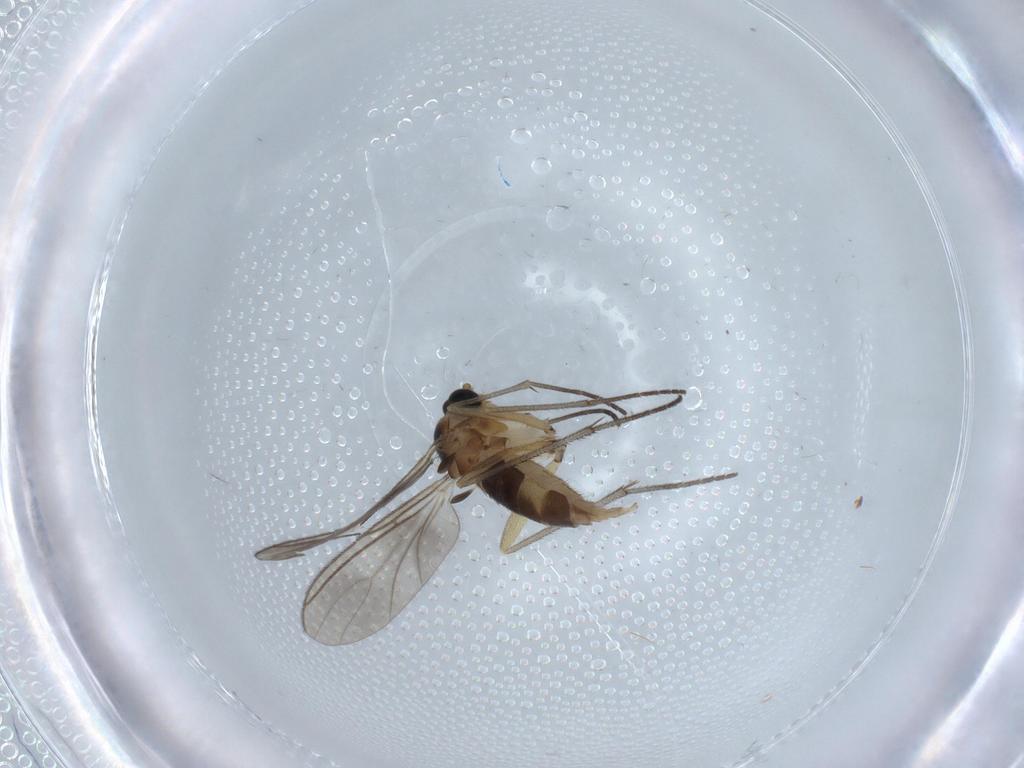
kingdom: Animalia
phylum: Arthropoda
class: Insecta
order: Diptera
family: Sciaridae
